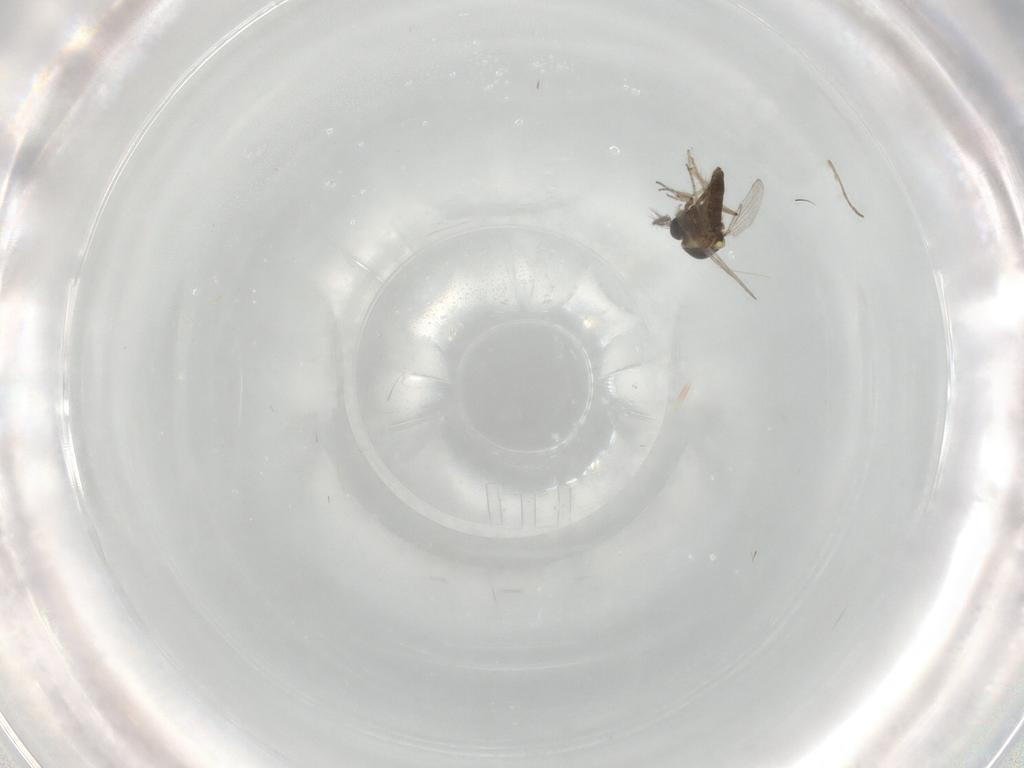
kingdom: Animalia
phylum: Arthropoda
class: Insecta
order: Diptera
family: Ceratopogonidae
